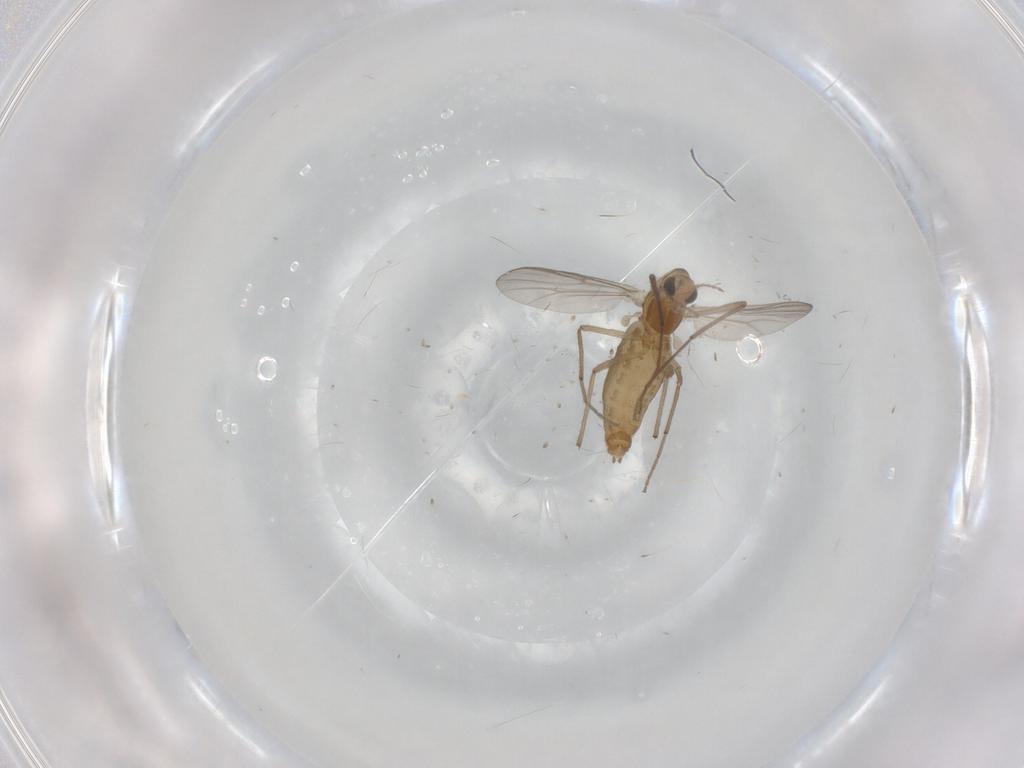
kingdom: Animalia
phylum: Arthropoda
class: Insecta
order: Diptera
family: Chironomidae
